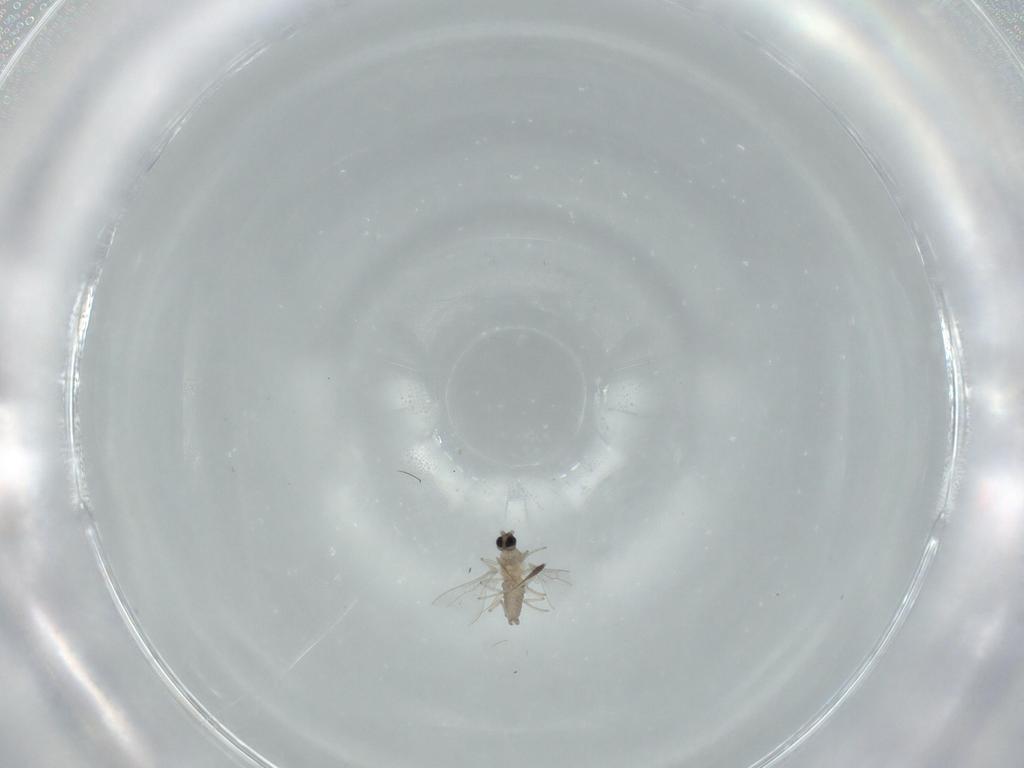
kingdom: Animalia
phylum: Arthropoda
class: Insecta
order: Diptera
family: Cecidomyiidae
